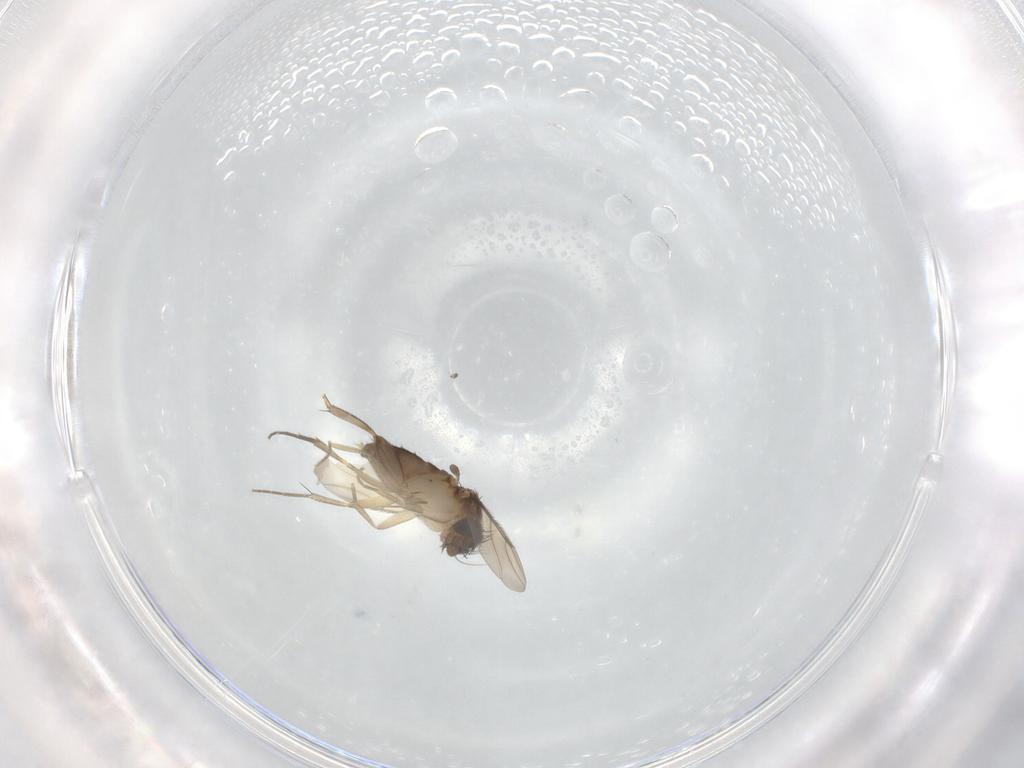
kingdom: Animalia
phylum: Arthropoda
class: Insecta
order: Diptera
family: Phoridae
